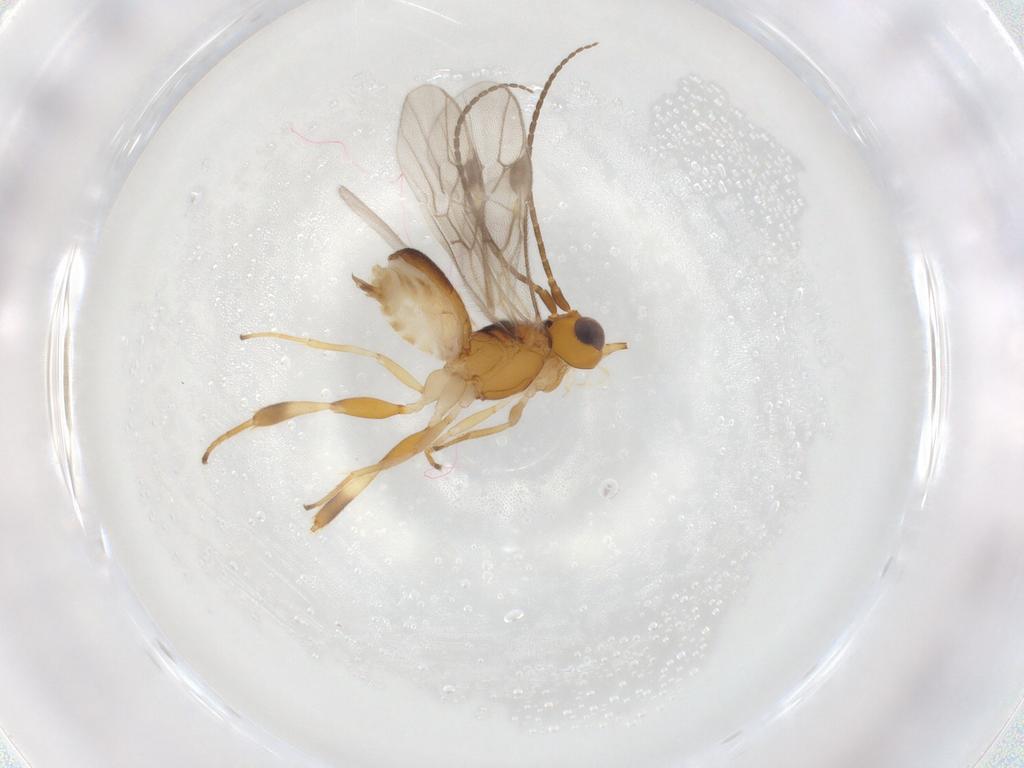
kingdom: Animalia
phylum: Arthropoda
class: Insecta
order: Hymenoptera
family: Braconidae
